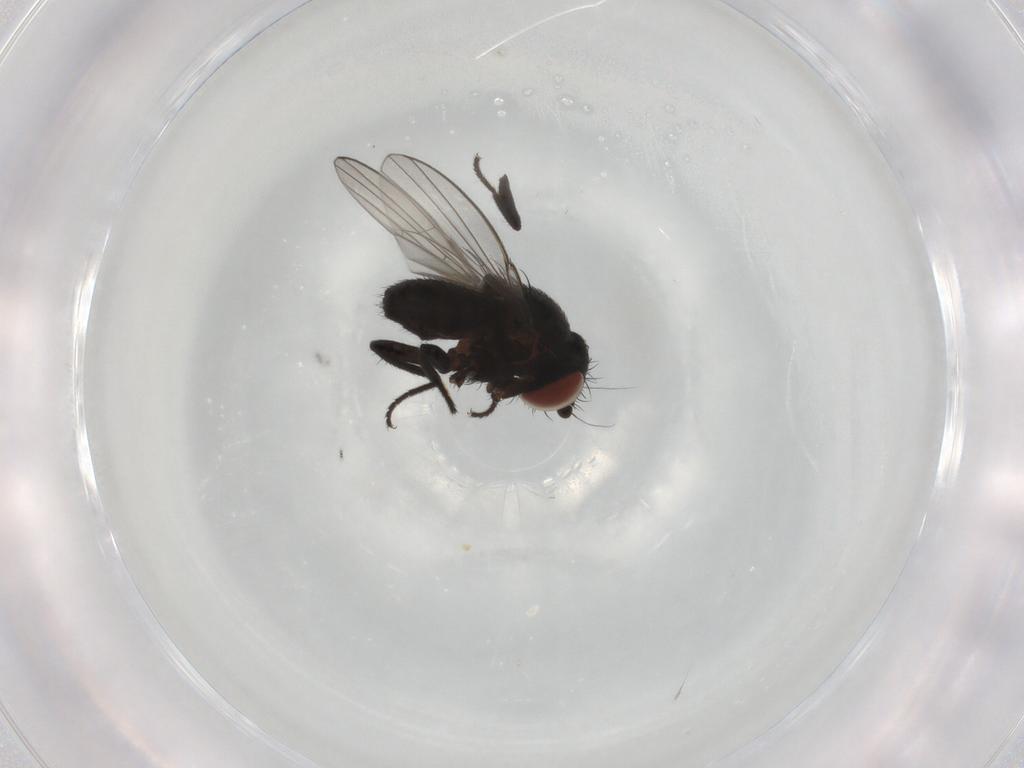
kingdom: Animalia
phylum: Arthropoda
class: Insecta
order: Diptera
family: Milichiidae
